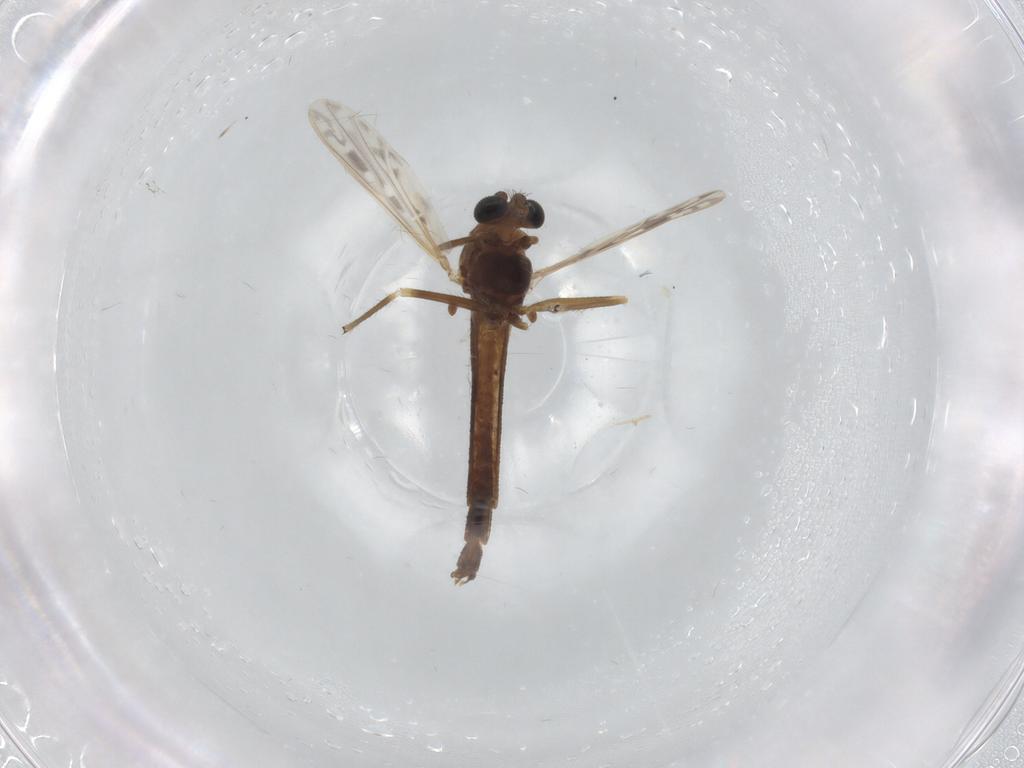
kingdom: Animalia
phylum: Arthropoda
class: Insecta
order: Diptera
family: Chironomidae
